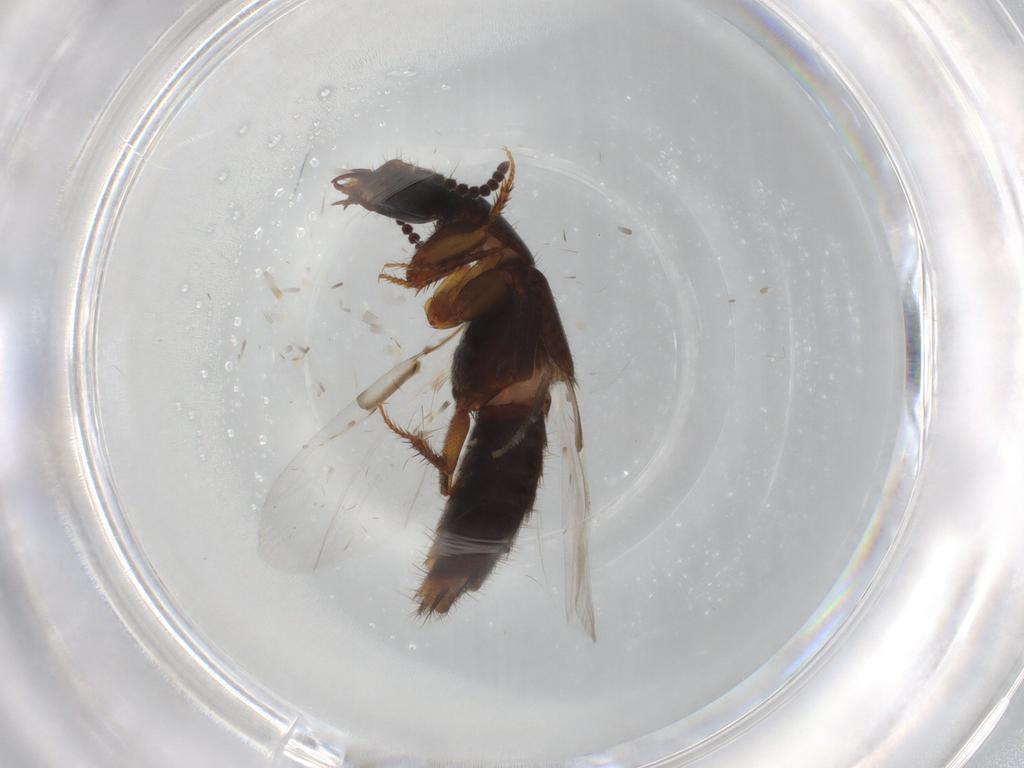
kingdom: Animalia
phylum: Arthropoda
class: Insecta
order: Coleoptera
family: Staphylinidae
